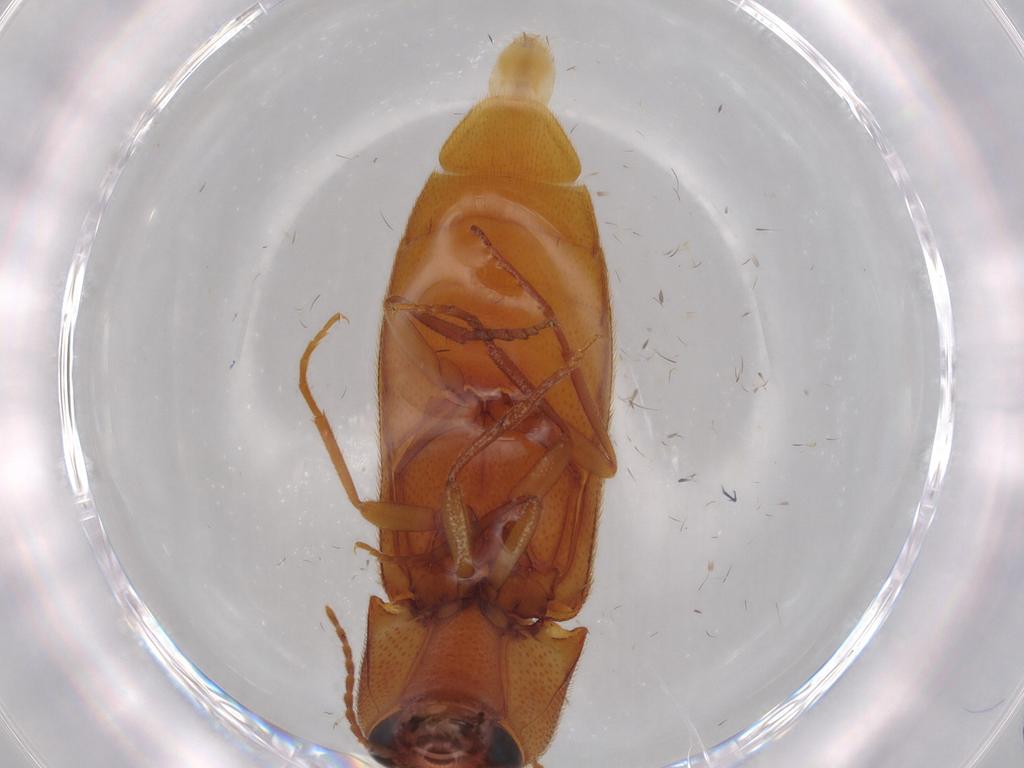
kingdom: Animalia
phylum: Arthropoda
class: Insecta
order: Coleoptera
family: Elateridae
